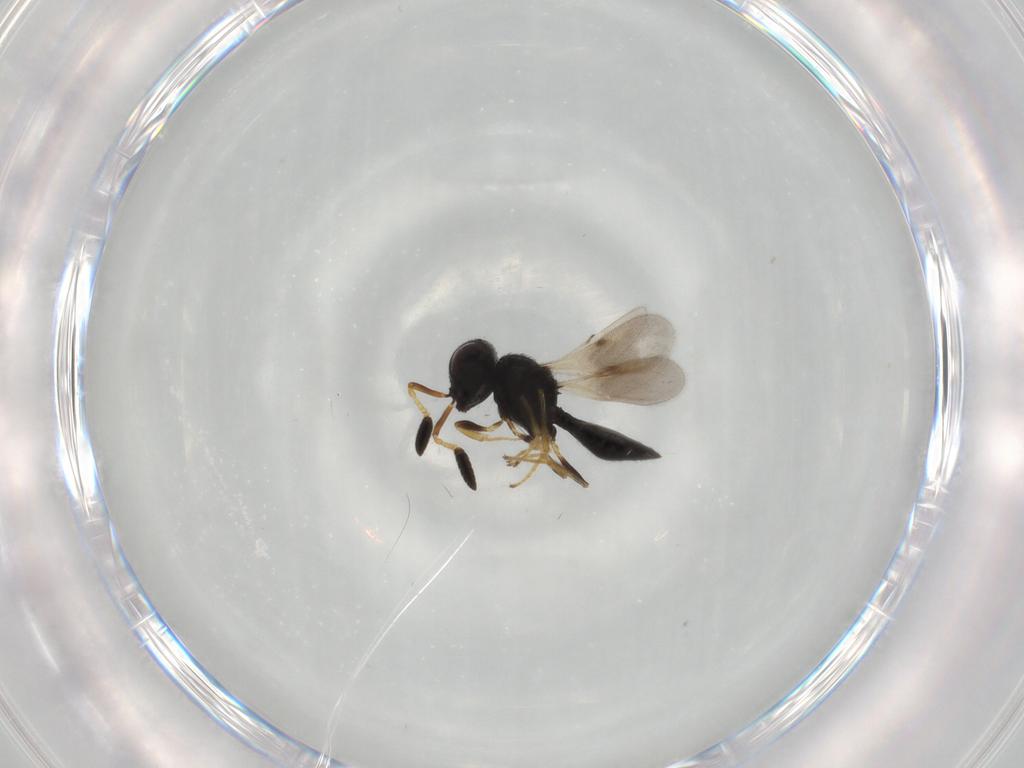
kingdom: Animalia
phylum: Arthropoda
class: Insecta
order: Hymenoptera
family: Scelionidae
